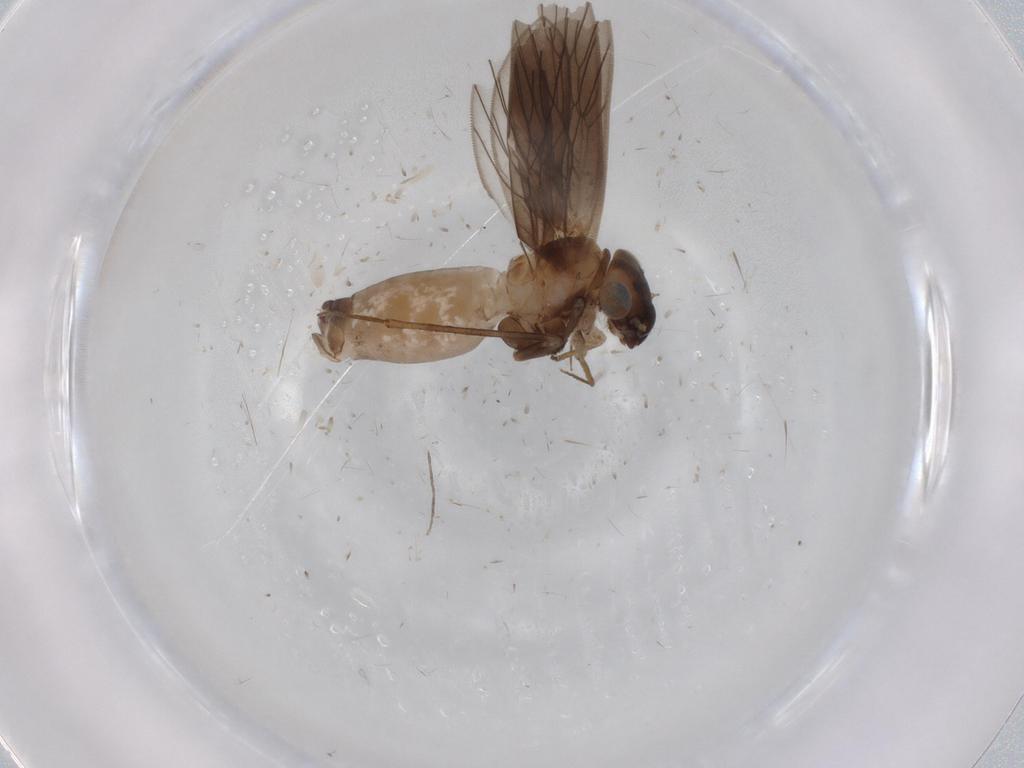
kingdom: Animalia
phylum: Arthropoda
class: Insecta
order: Psocodea
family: Lepidopsocidae
